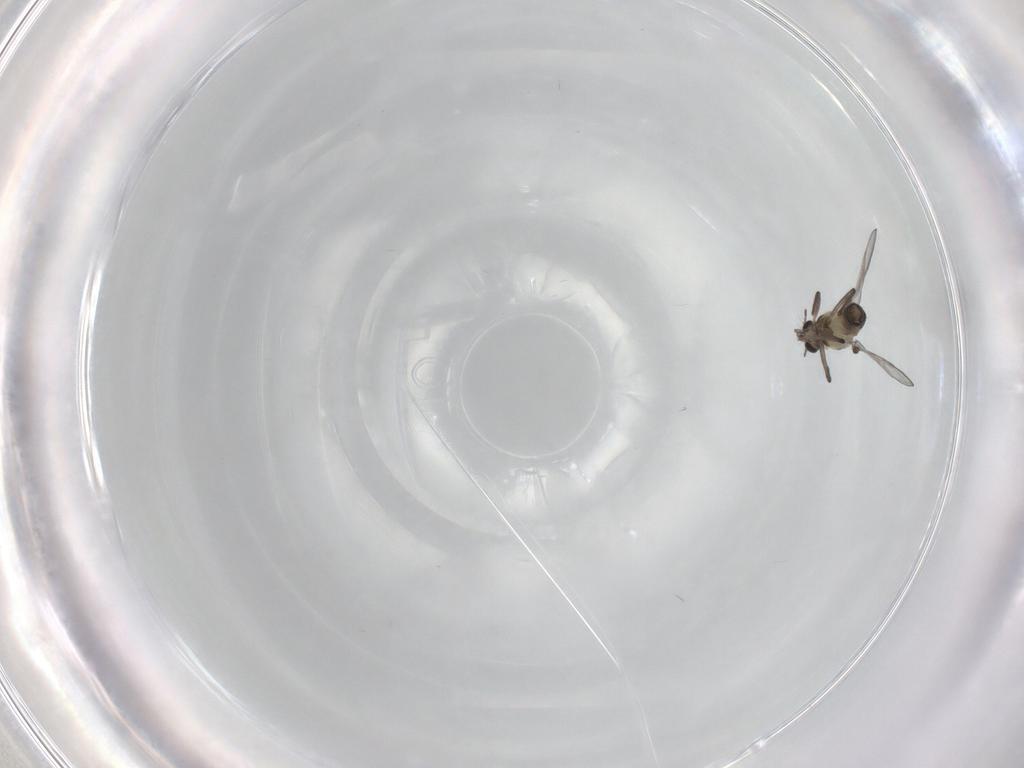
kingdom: Animalia
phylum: Arthropoda
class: Insecta
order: Diptera
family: Chironomidae
